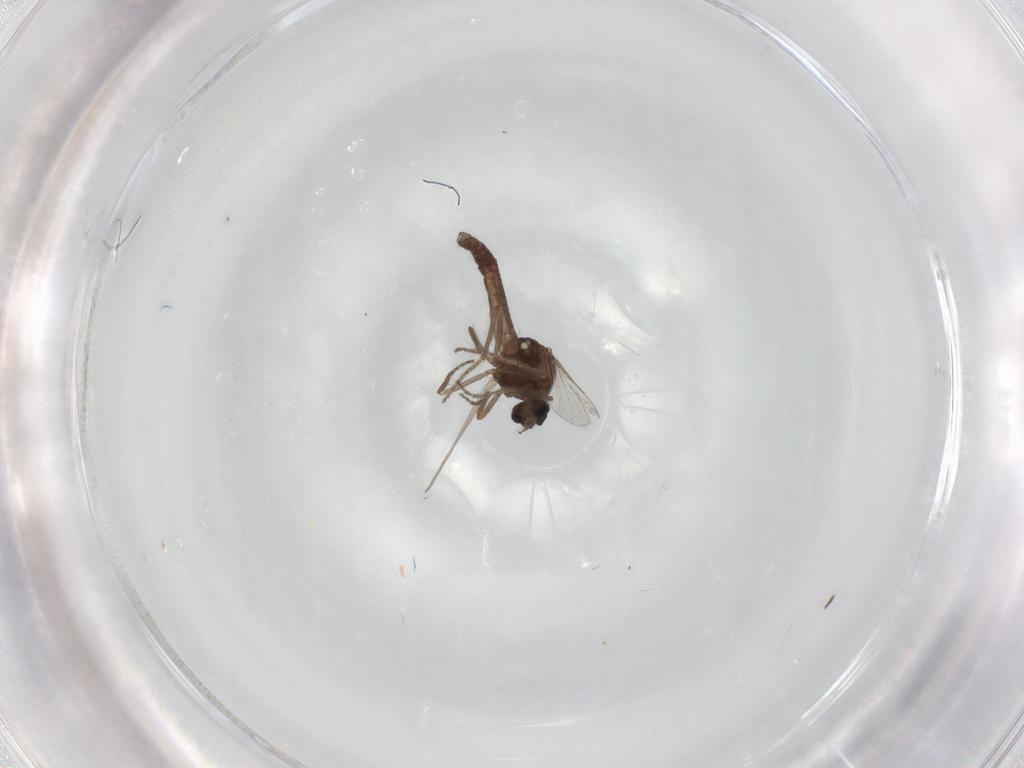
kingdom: Animalia
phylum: Arthropoda
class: Insecta
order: Diptera
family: Ceratopogonidae
